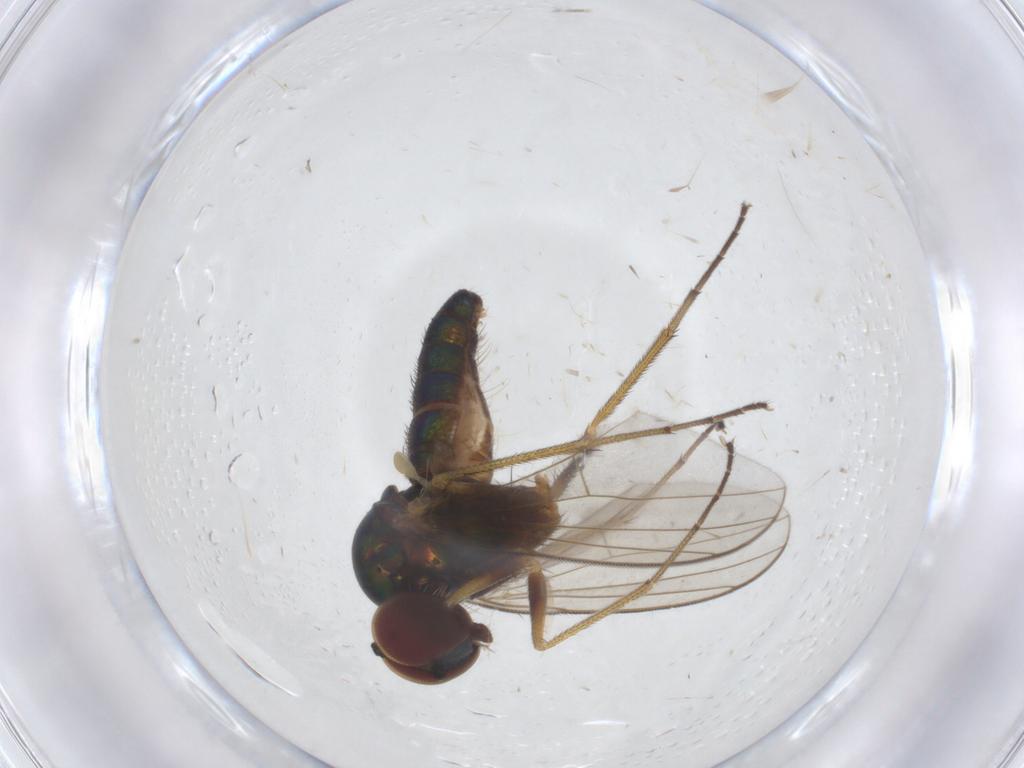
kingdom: Animalia
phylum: Arthropoda
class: Insecta
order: Diptera
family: Dolichopodidae
